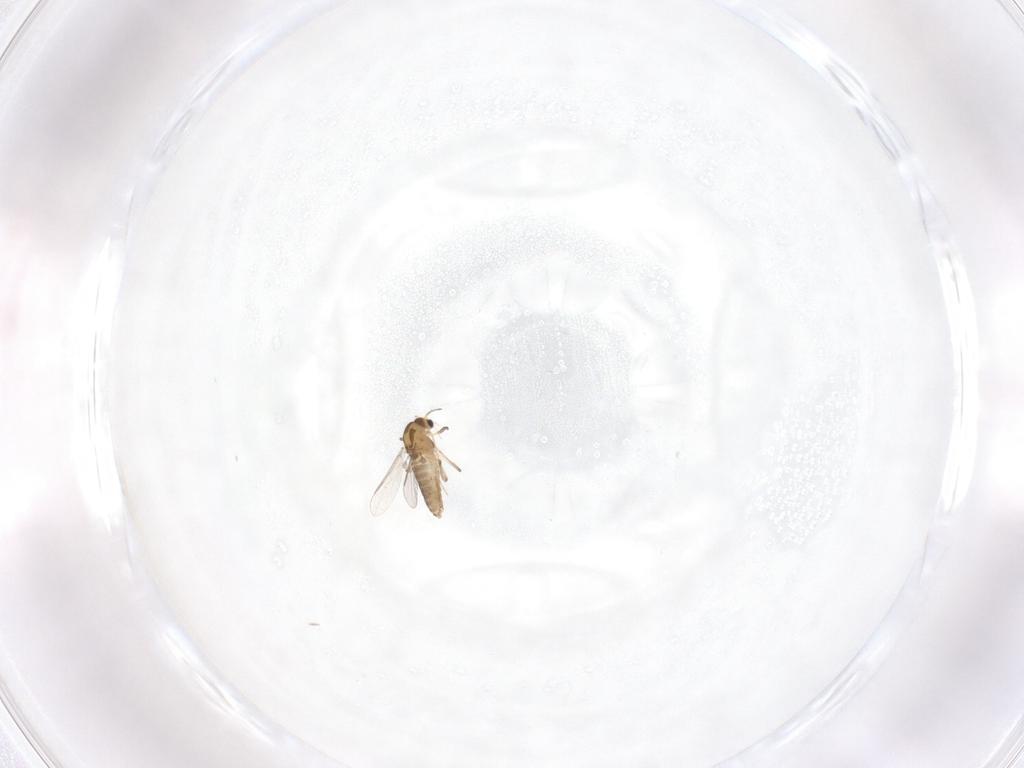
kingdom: Animalia
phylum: Arthropoda
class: Insecta
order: Diptera
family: Chironomidae
